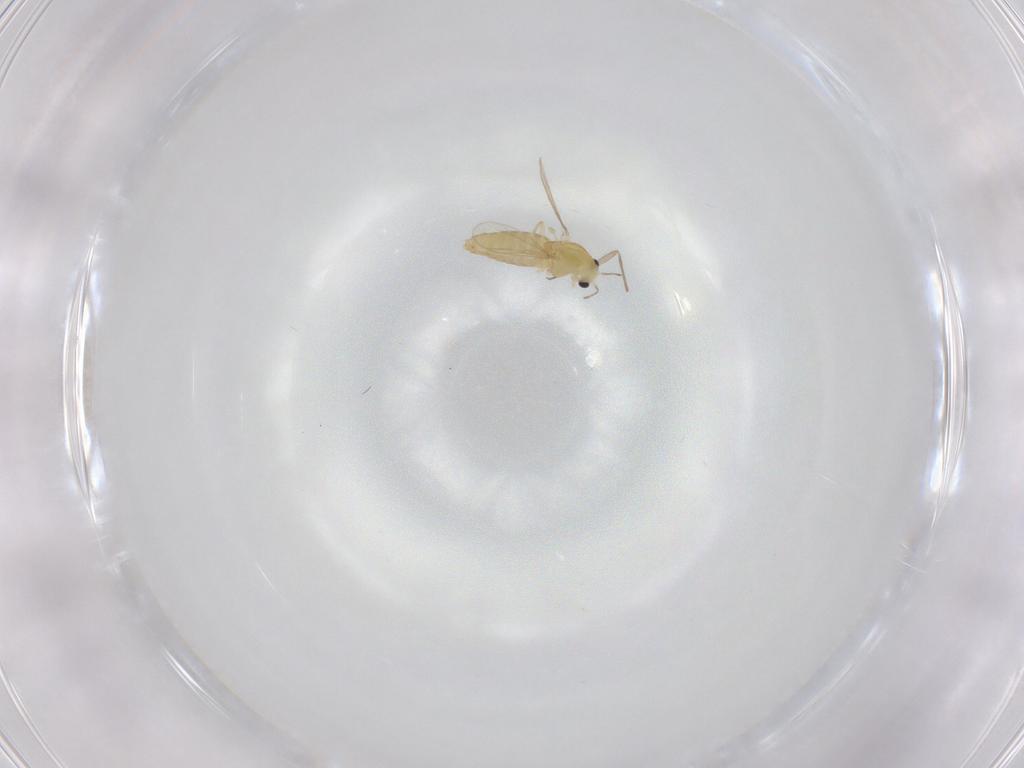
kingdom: Animalia
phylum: Arthropoda
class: Insecta
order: Diptera
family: Chironomidae
